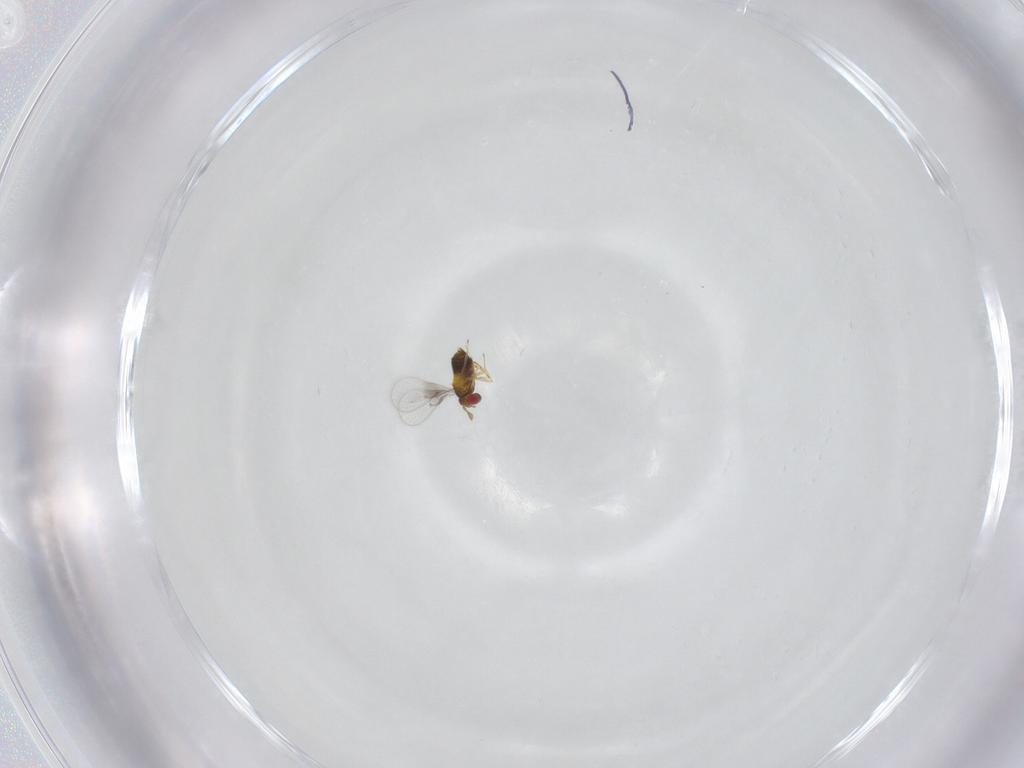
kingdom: Animalia
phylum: Arthropoda
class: Insecta
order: Hymenoptera
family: Trichogrammatidae
